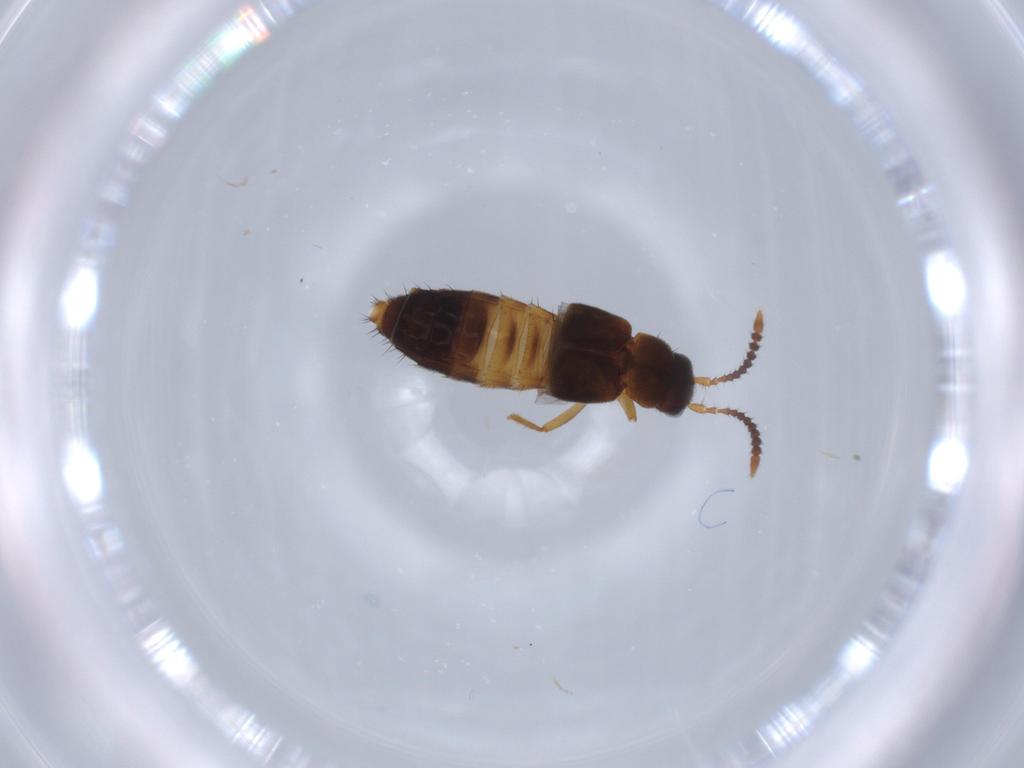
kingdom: Animalia
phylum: Arthropoda
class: Insecta
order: Coleoptera
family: Staphylinidae
